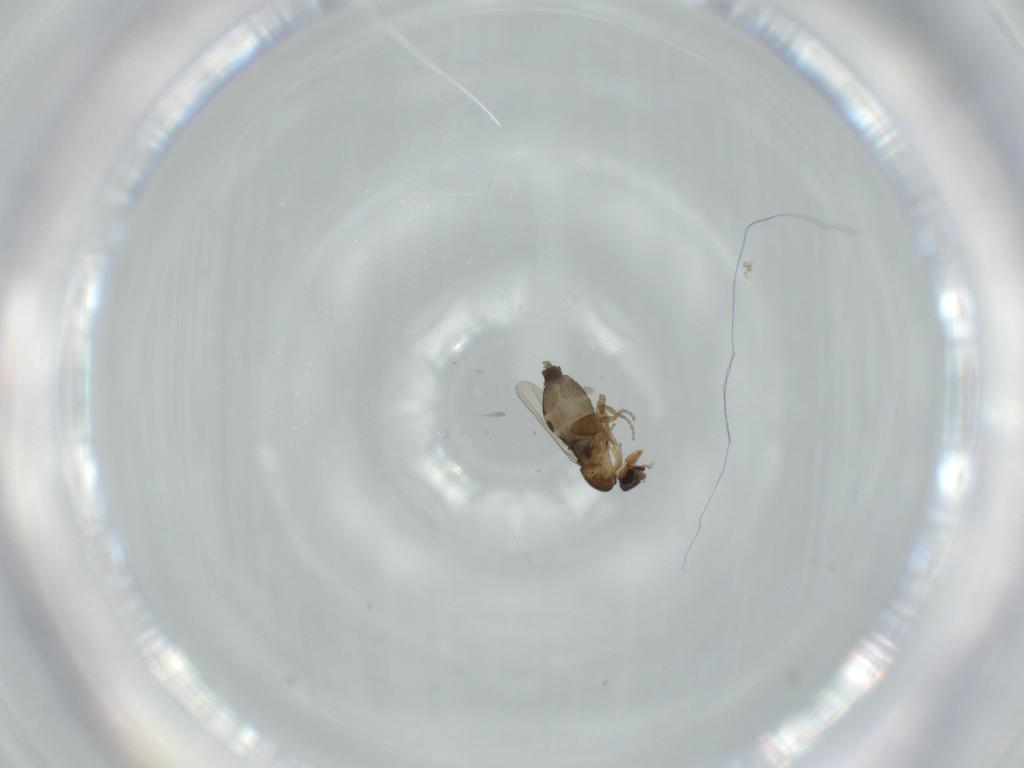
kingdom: Animalia
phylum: Arthropoda
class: Insecta
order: Diptera
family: Phoridae
